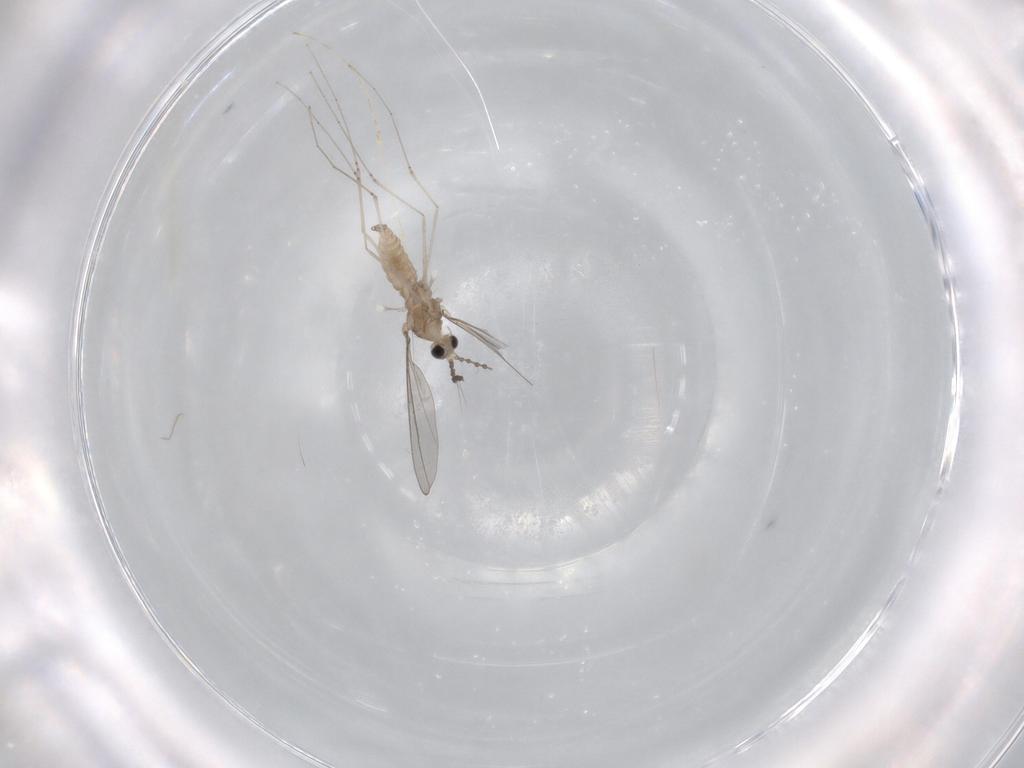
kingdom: Animalia
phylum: Arthropoda
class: Insecta
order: Diptera
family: Cecidomyiidae
